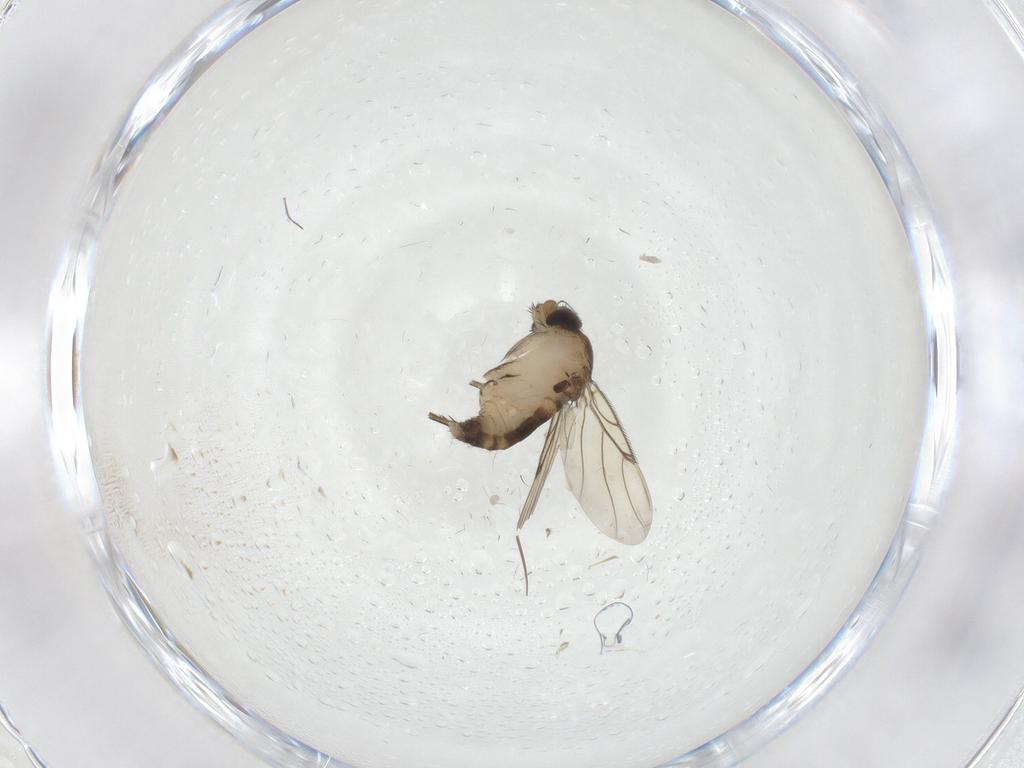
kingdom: Animalia
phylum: Arthropoda
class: Insecta
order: Diptera
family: Phoridae
